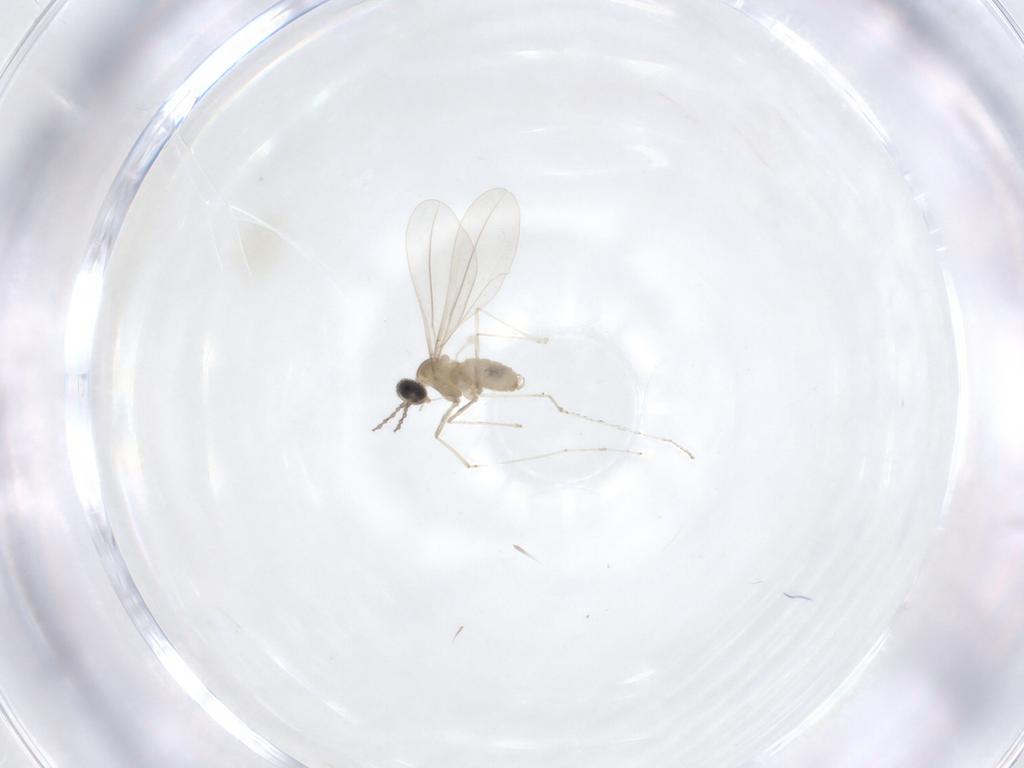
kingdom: Animalia
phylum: Arthropoda
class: Insecta
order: Diptera
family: Cecidomyiidae
